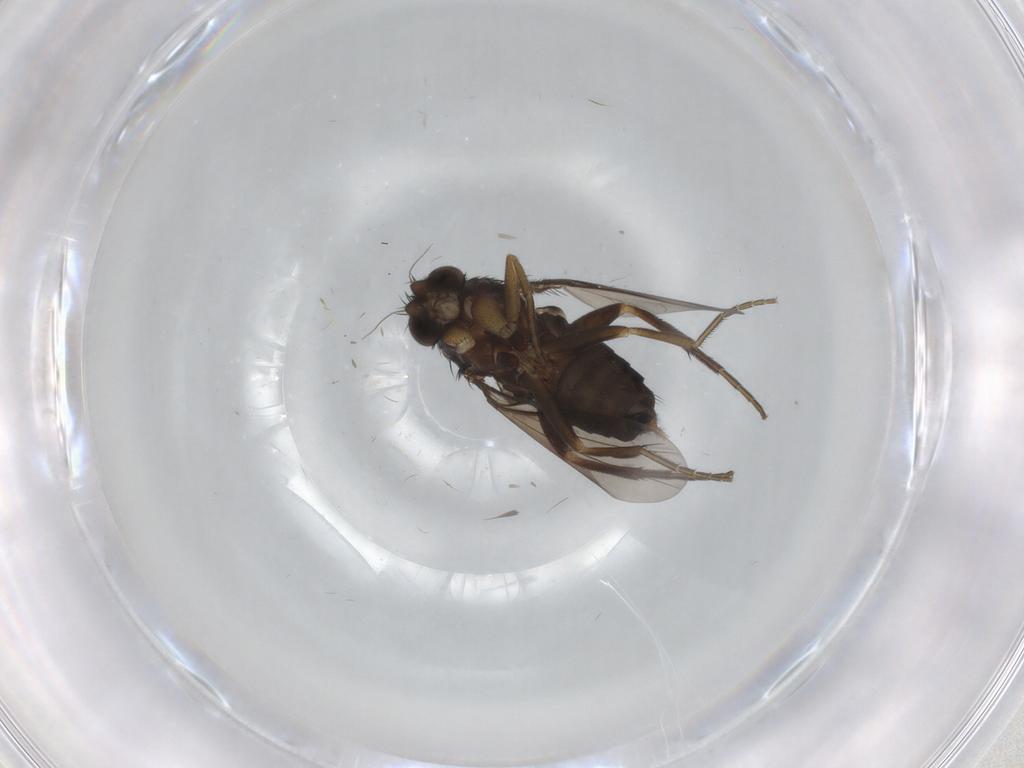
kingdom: Animalia
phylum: Arthropoda
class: Insecta
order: Diptera
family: Phoridae
